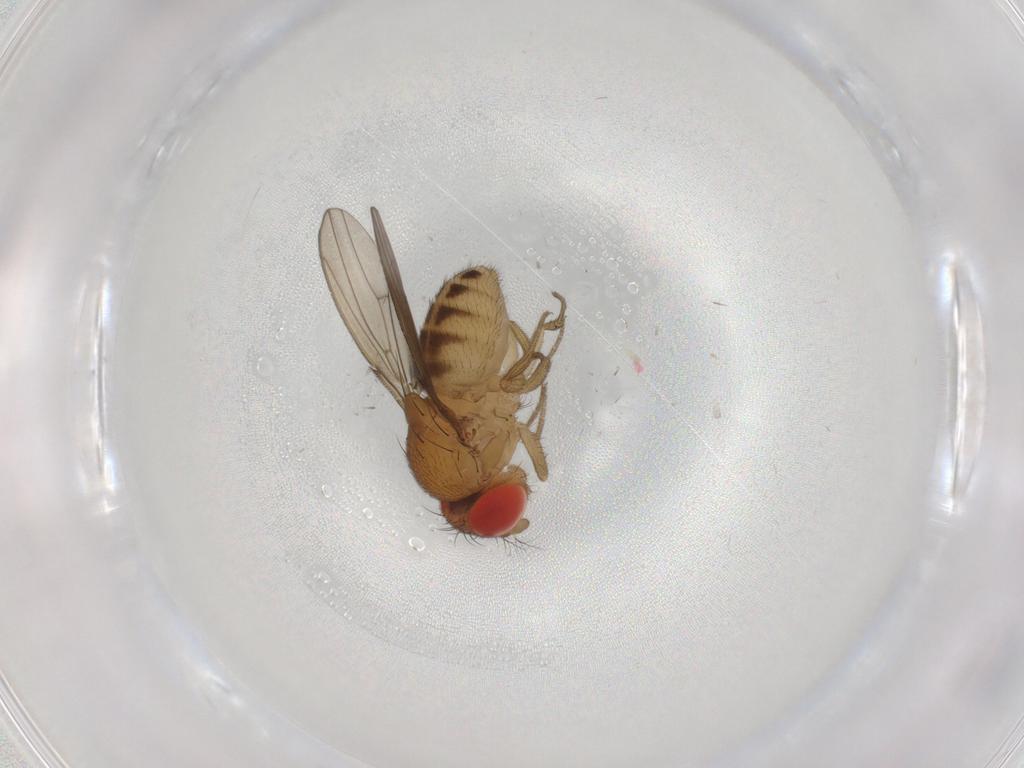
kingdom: Animalia
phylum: Arthropoda
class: Insecta
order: Diptera
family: Drosophilidae
